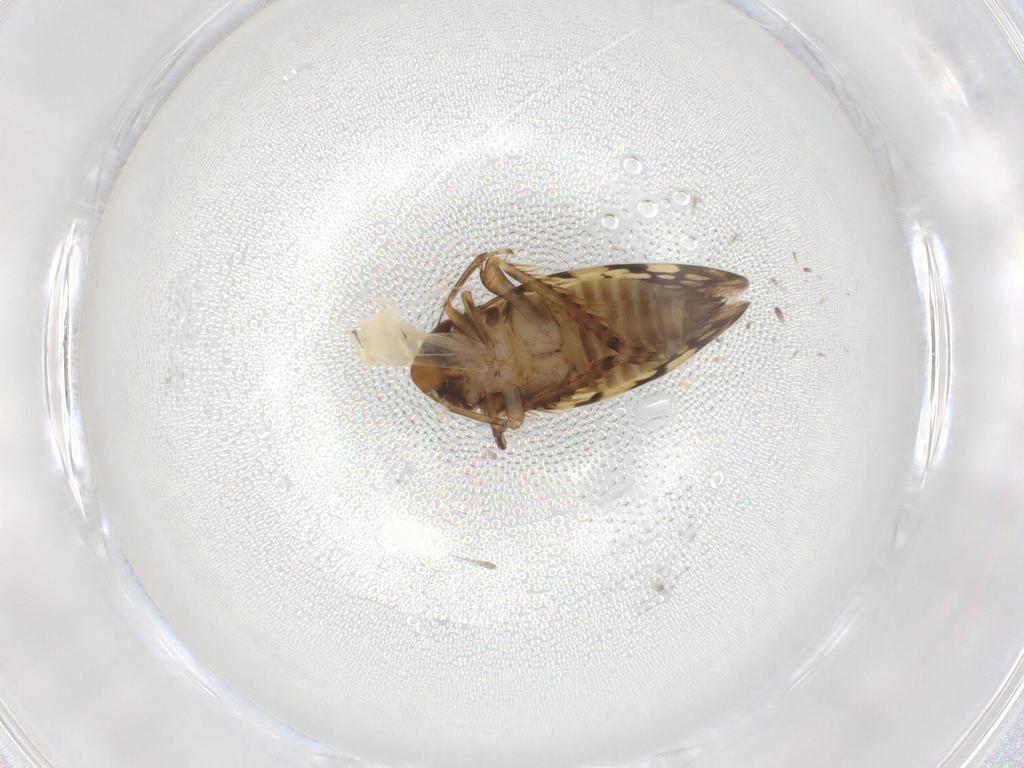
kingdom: Animalia
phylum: Arthropoda
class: Insecta
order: Hemiptera
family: Aleyrodidae
